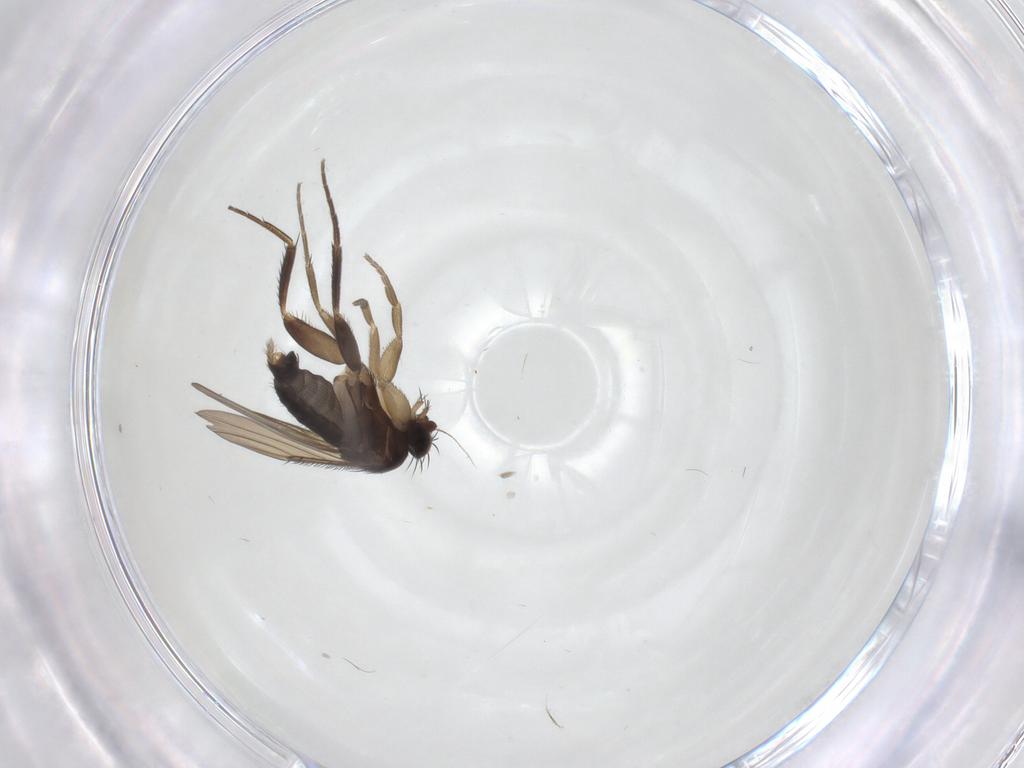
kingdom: Animalia
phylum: Arthropoda
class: Insecta
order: Diptera
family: Phoridae
